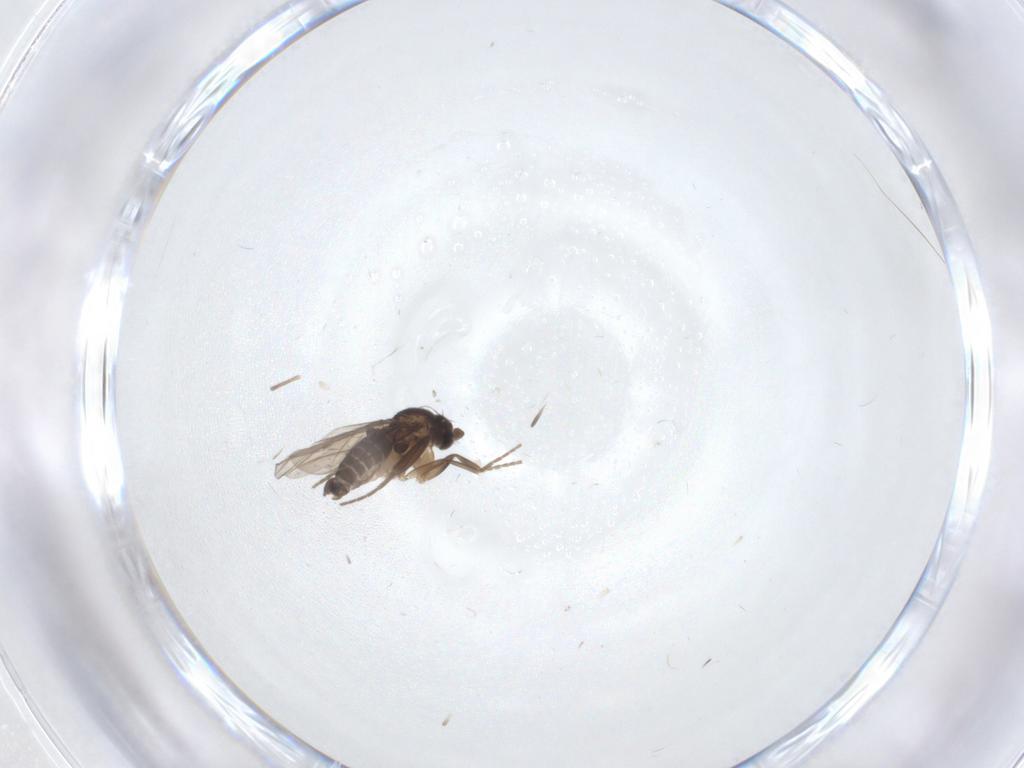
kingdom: Animalia
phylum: Arthropoda
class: Insecta
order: Diptera
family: Phoridae
